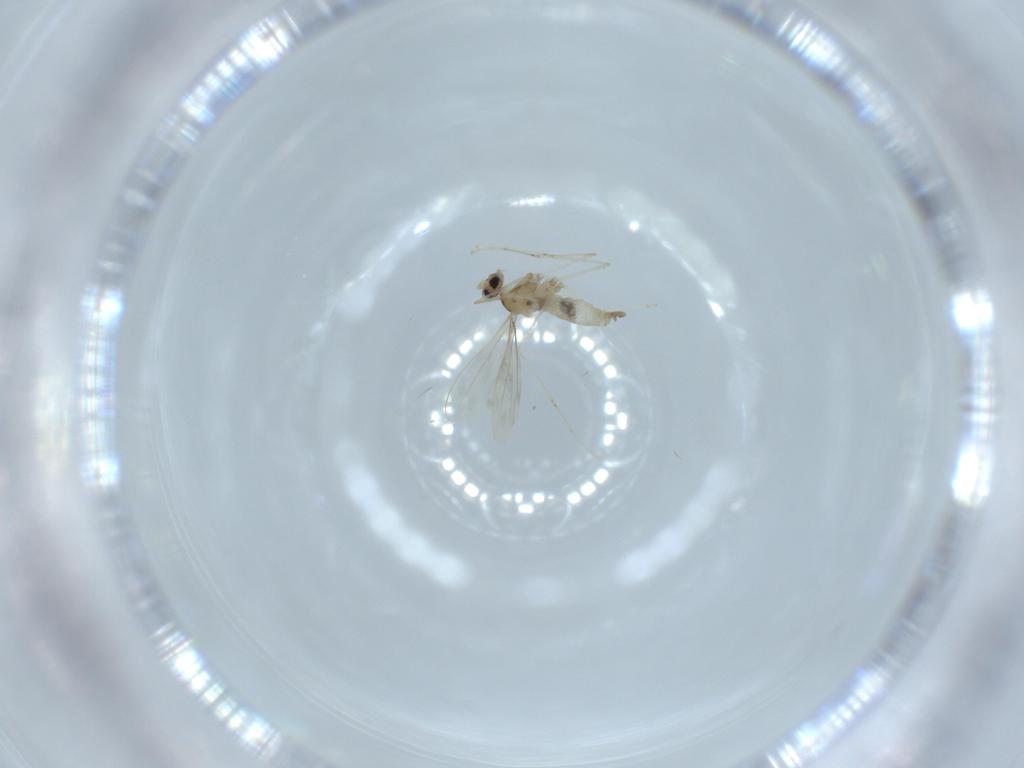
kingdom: Animalia
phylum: Arthropoda
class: Insecta
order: Diptera
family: Cecidomyiidae
